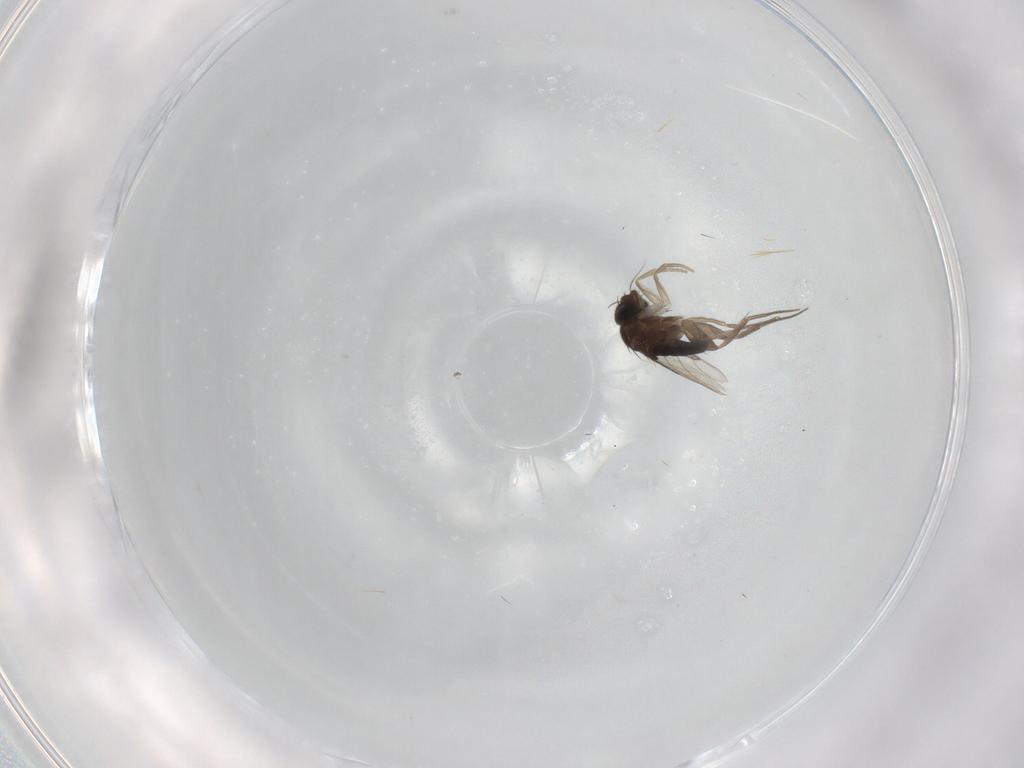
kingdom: Animalia
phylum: Arthropoda
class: Insecta
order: Diptera
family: Phoridae
